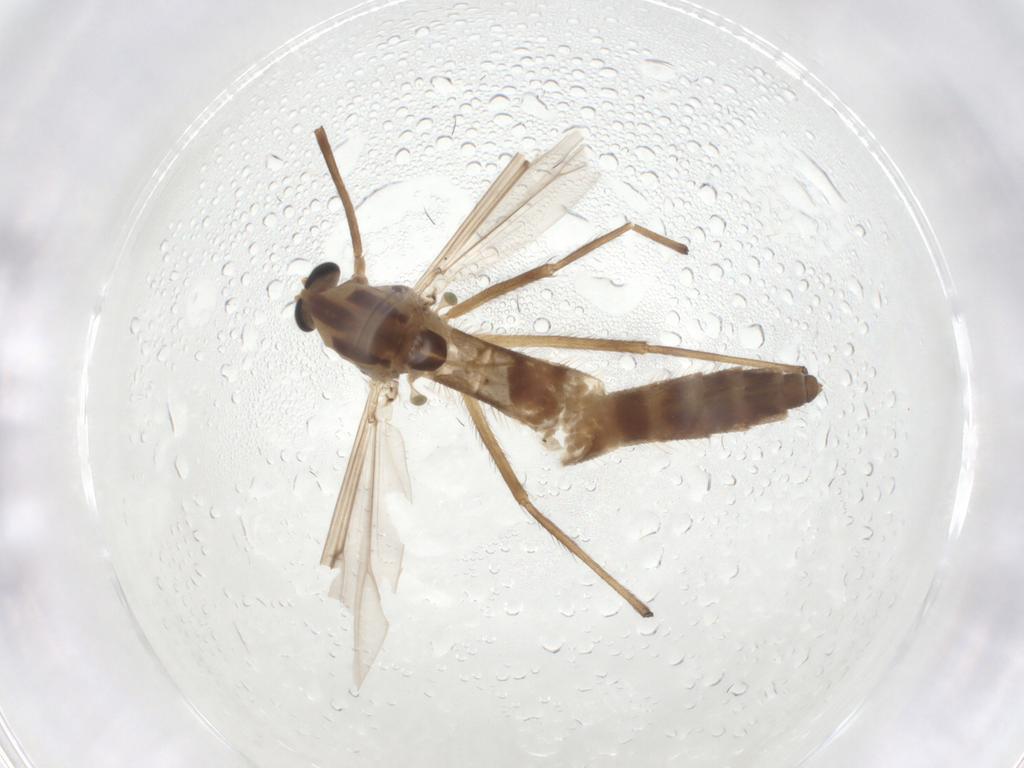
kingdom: Animalia
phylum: Arthropoda
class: Insecta
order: Diptera
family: Chironomidae
